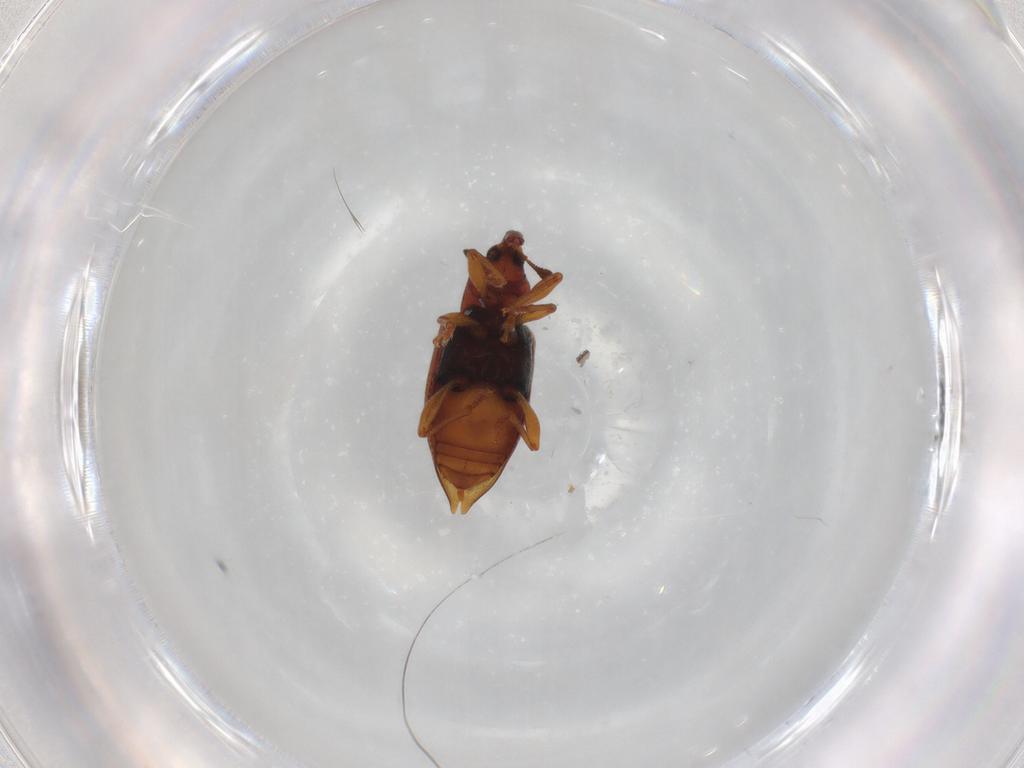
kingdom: Animalia
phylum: Arthropoda
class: Insecta
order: Coleoptera
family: Curculionidae
